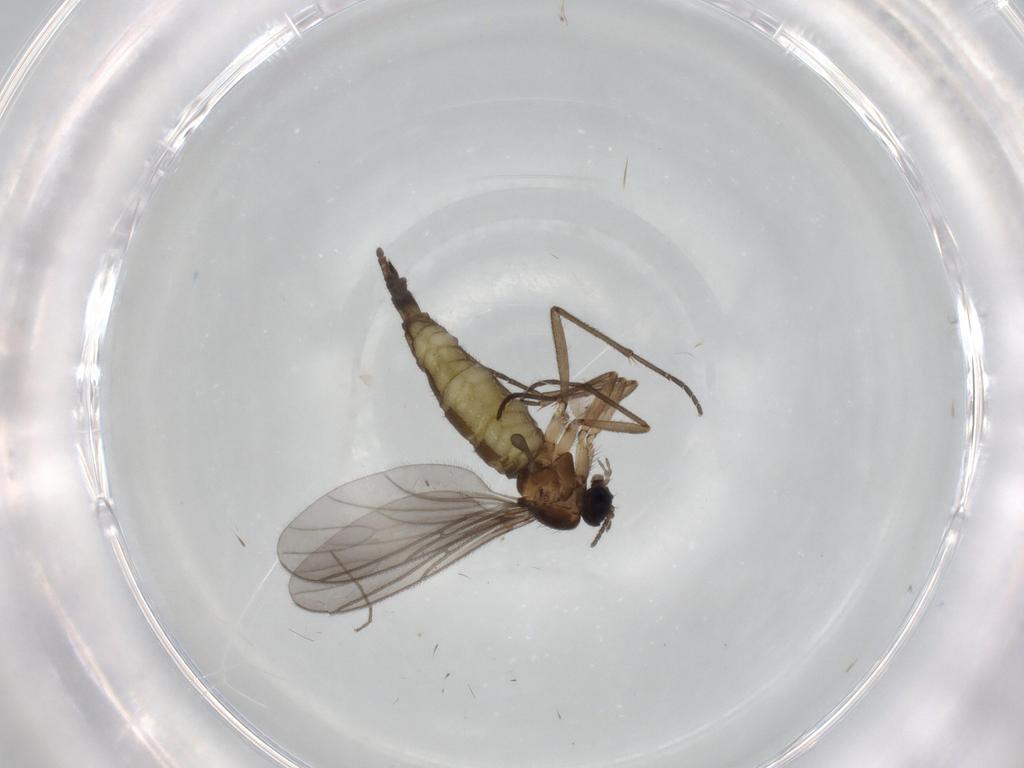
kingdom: Animalia
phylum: Arthropoda
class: Insecta
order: Diptera
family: Sciaridae
